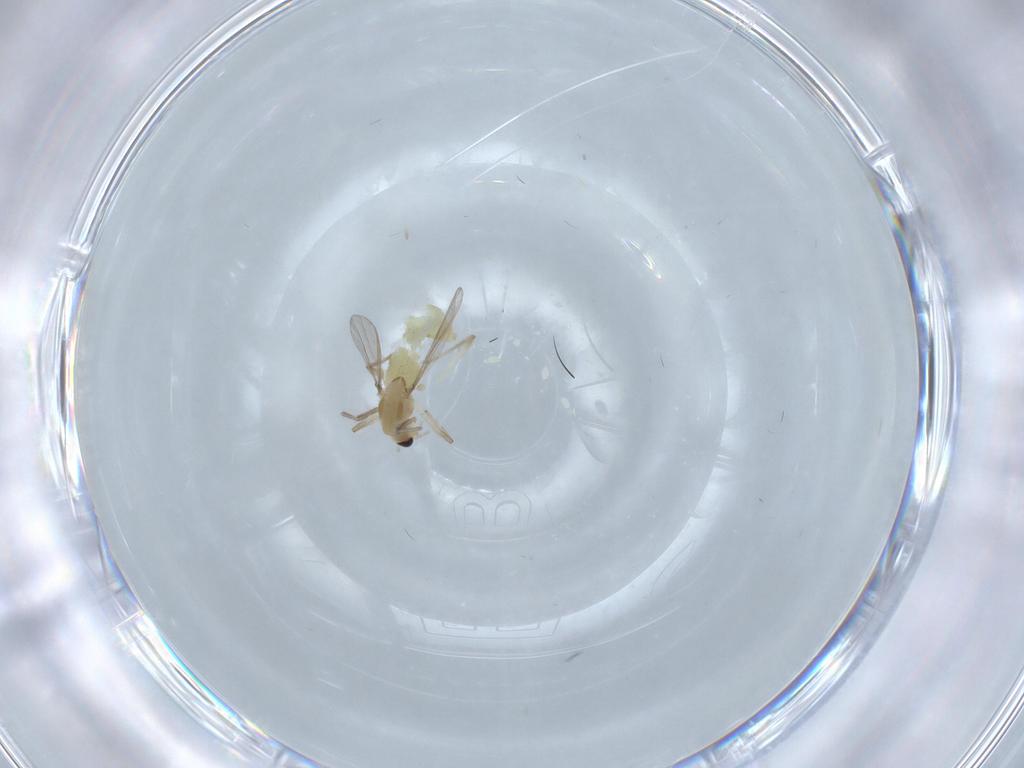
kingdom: Animalia
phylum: Arthropoda
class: Insecta
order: Diptera
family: Chironomidae
